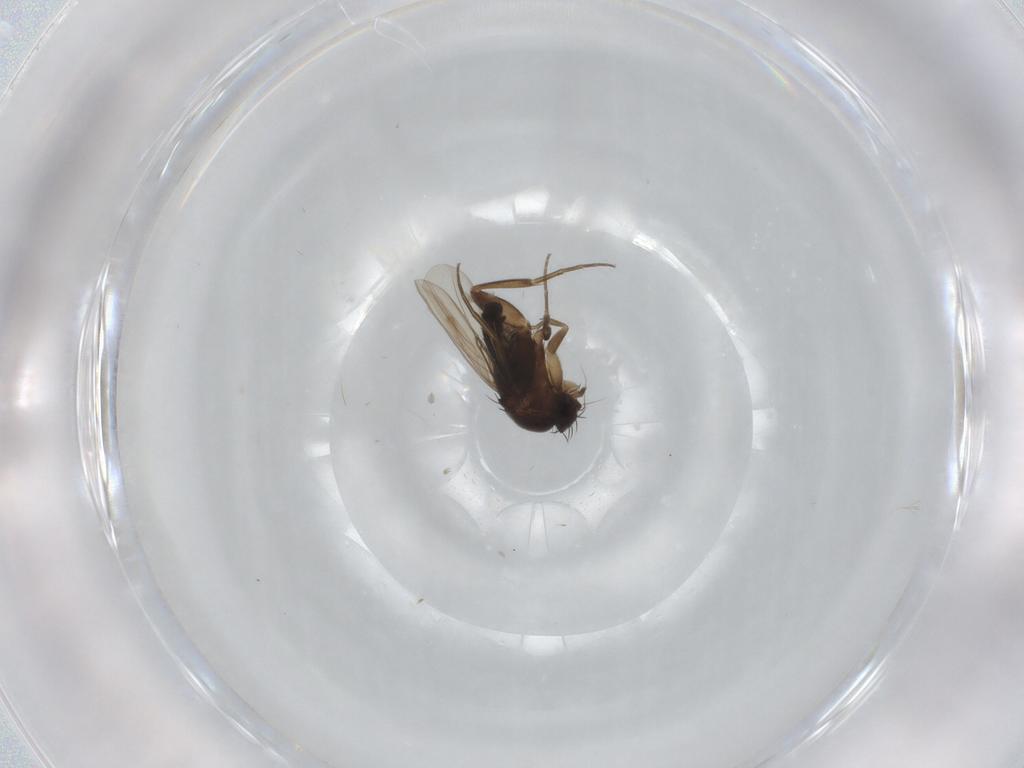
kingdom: Animalia
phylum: Arthropoda
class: Insecta
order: Diptera
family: Phoridae
